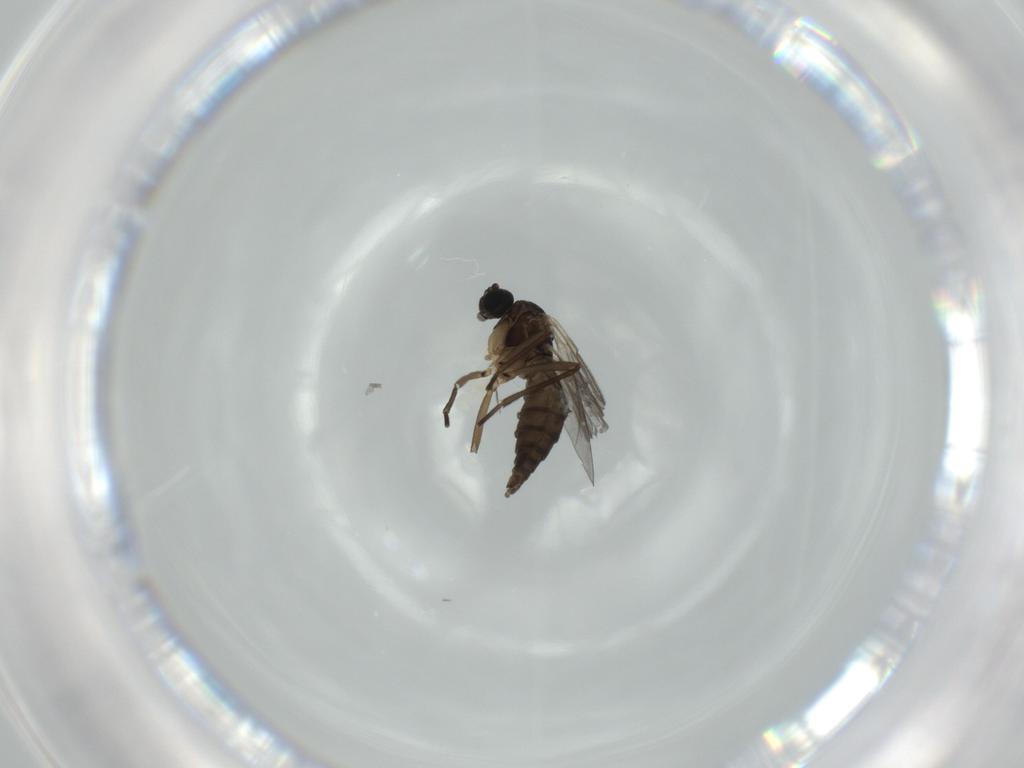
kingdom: Animalia
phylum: Arthropoda
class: Insecta
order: Diptera
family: Sciaridae
